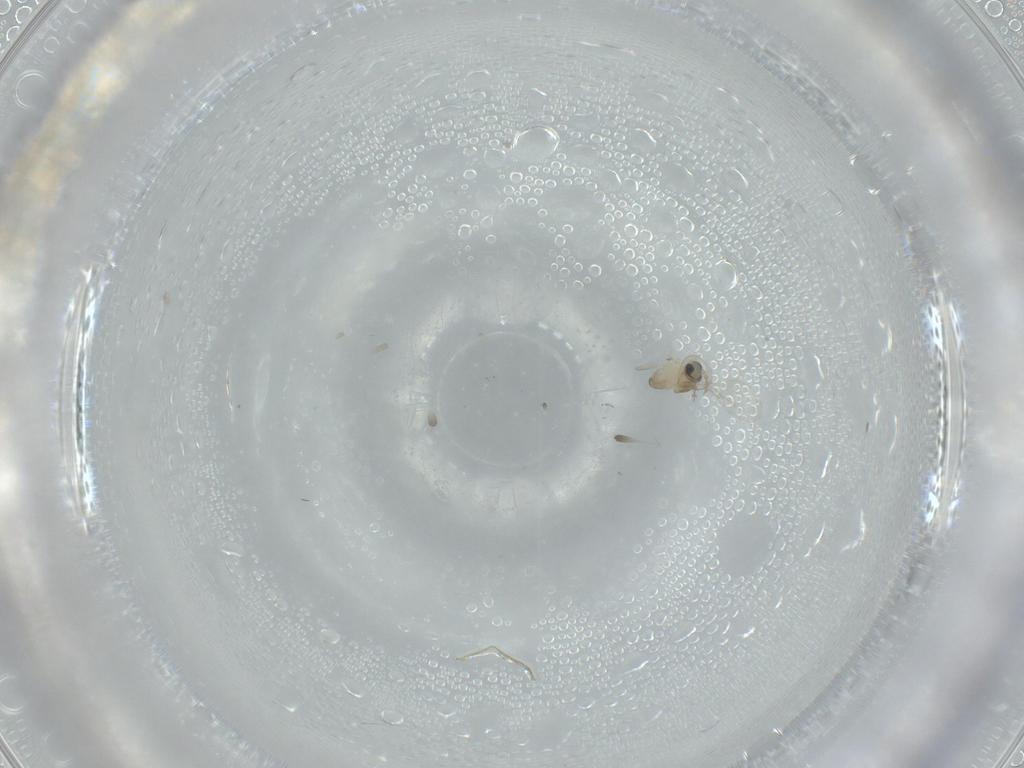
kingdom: Animalia
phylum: Arthropoda
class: Insecta
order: Diptera
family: Cecidomyiidae
